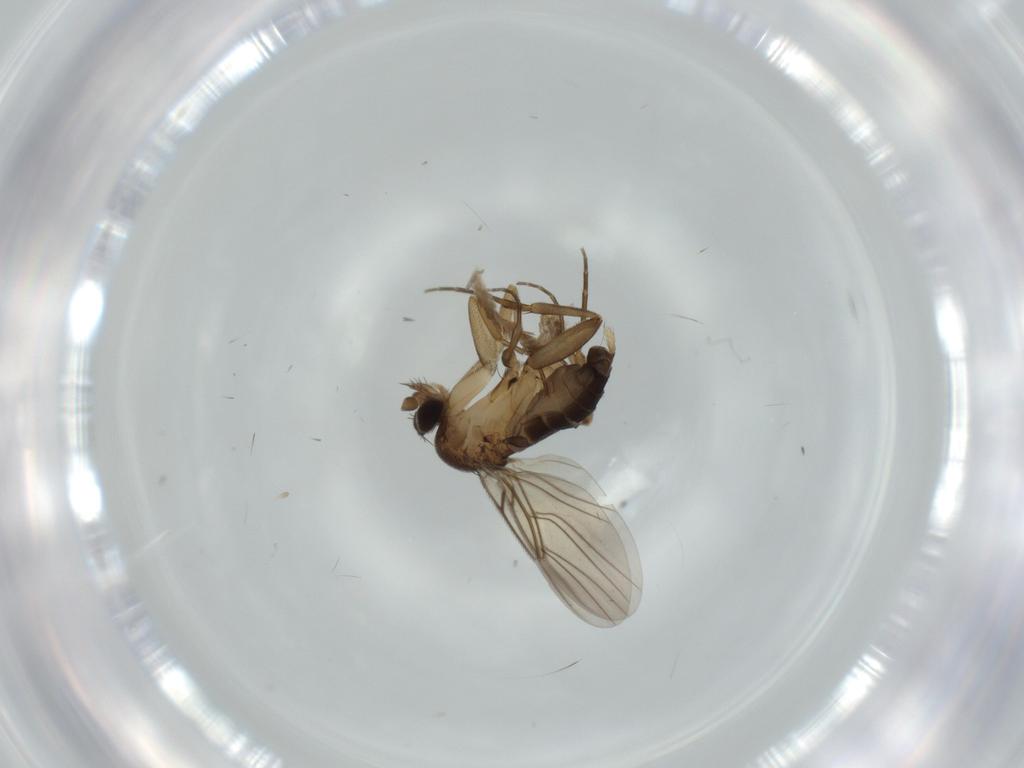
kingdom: Animalia
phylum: Arthropoda
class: Insecta
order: Diptera
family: Phoridae
